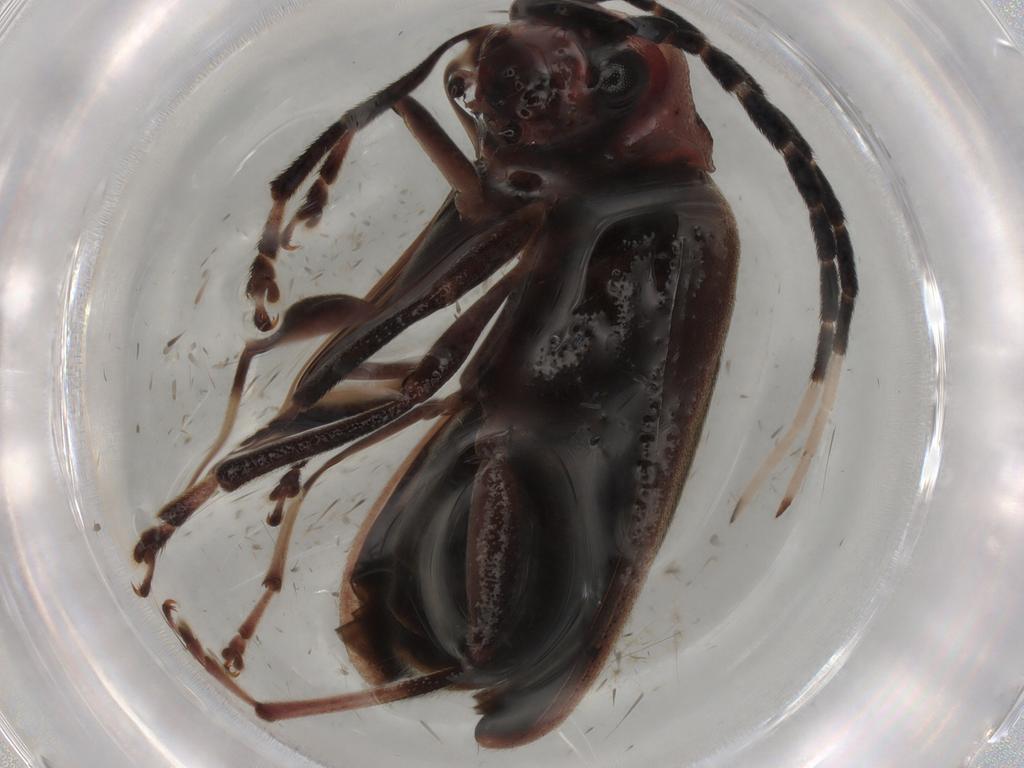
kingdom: Animalia
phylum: Arthropoda
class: Insecta
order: Coleoptera
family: Chrysomelidae
